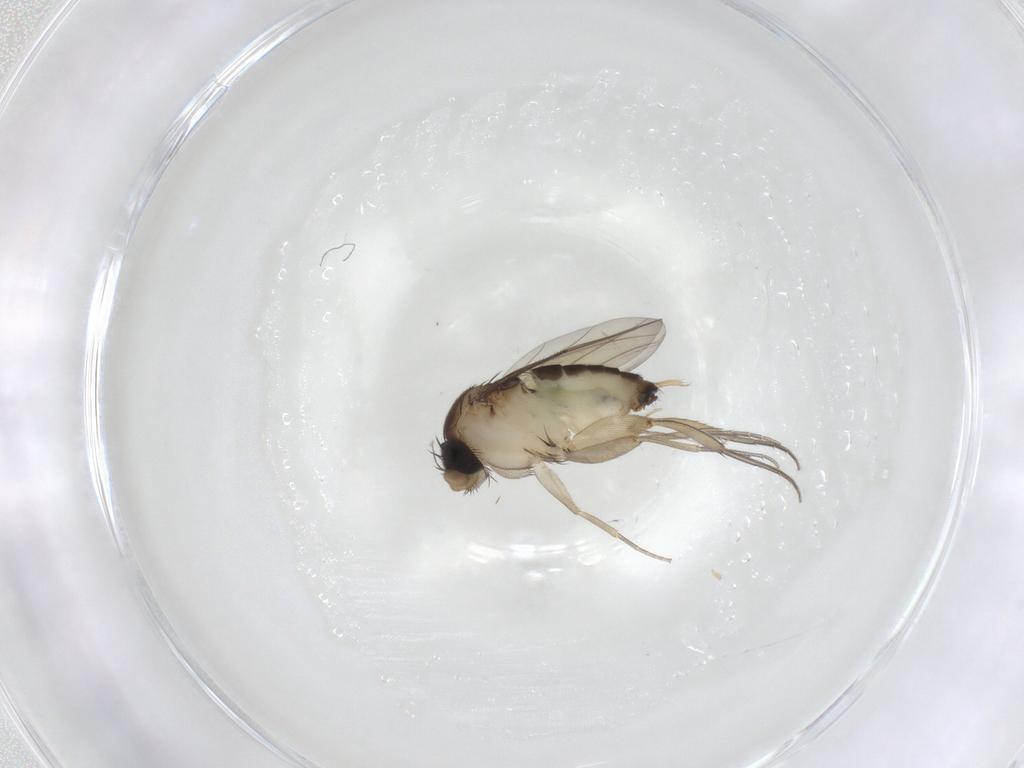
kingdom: Animalia
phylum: Arthropoda
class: Insecta
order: Diptera
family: Phoridae
